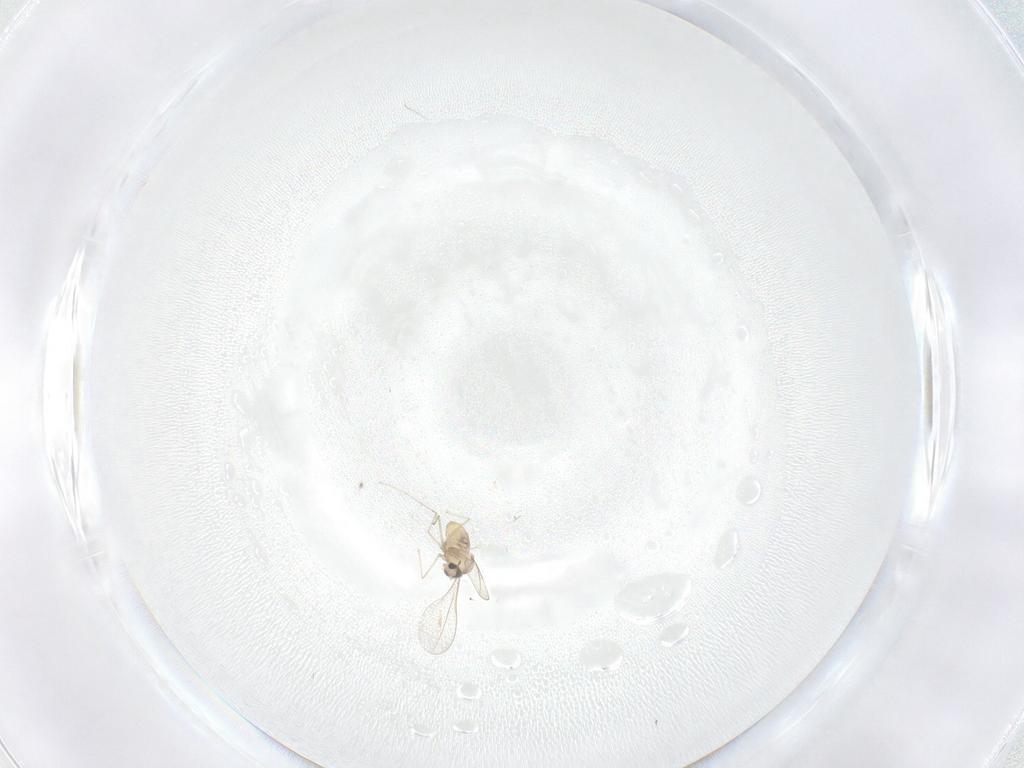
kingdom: Animalia
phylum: Arthropoda
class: Insecta
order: Diptera
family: Cecidomyiidae
